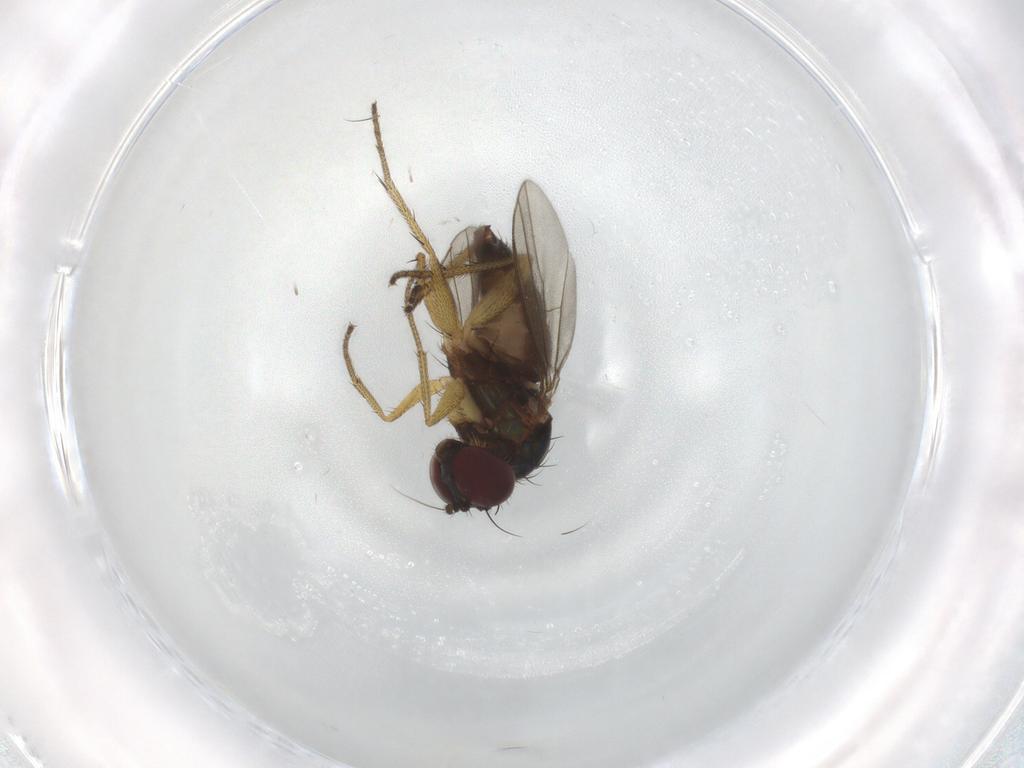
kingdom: Animalia
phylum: Arthropoda
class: Insecta
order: Diptera
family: Dolichopodidae
